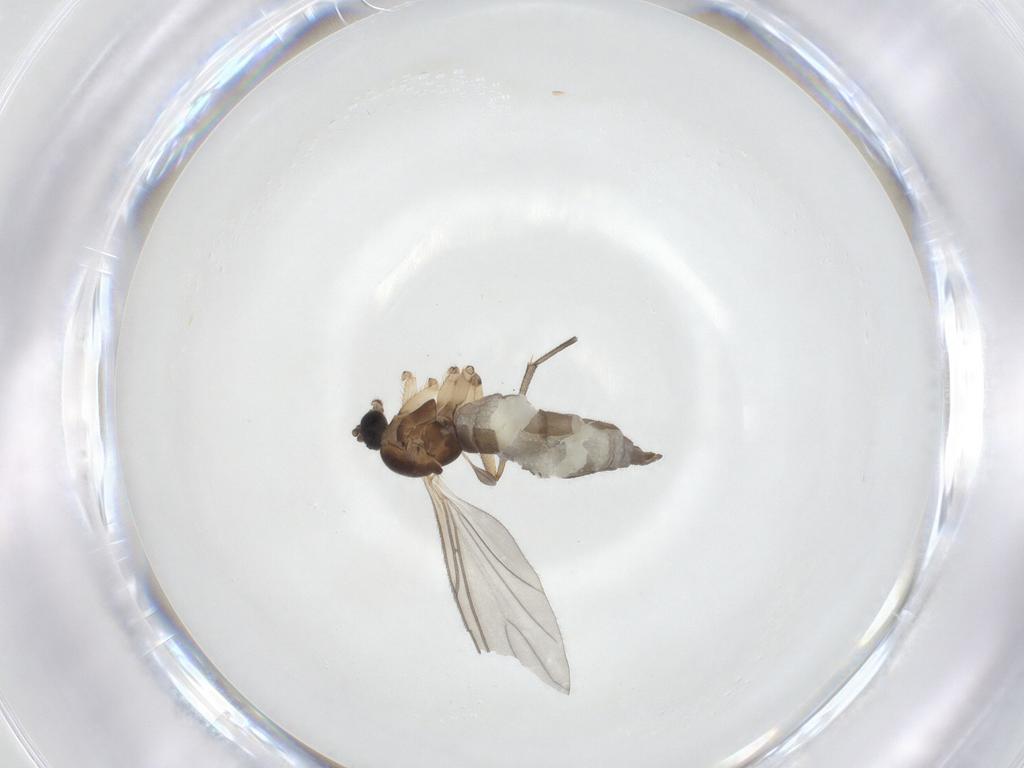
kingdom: Animalia
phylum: Arthropoda
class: Insecta
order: Diptera
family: Sciaridae
